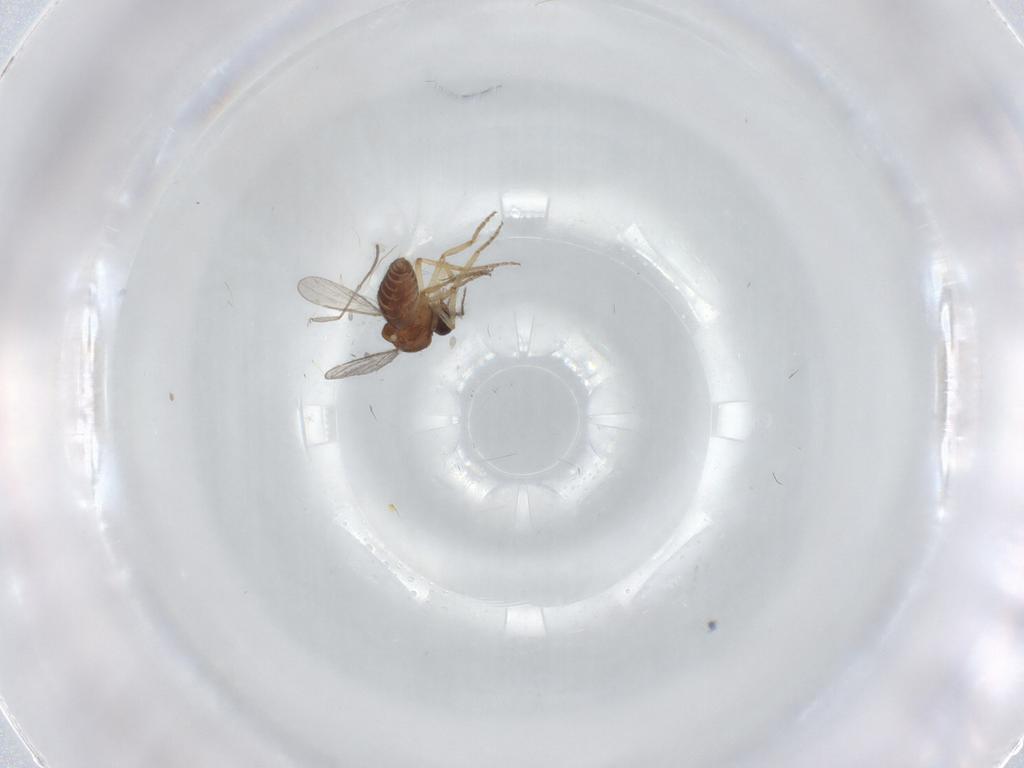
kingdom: Animalia
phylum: Arthropoda
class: Insecta
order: Diptera
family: Ceratopogonidae
